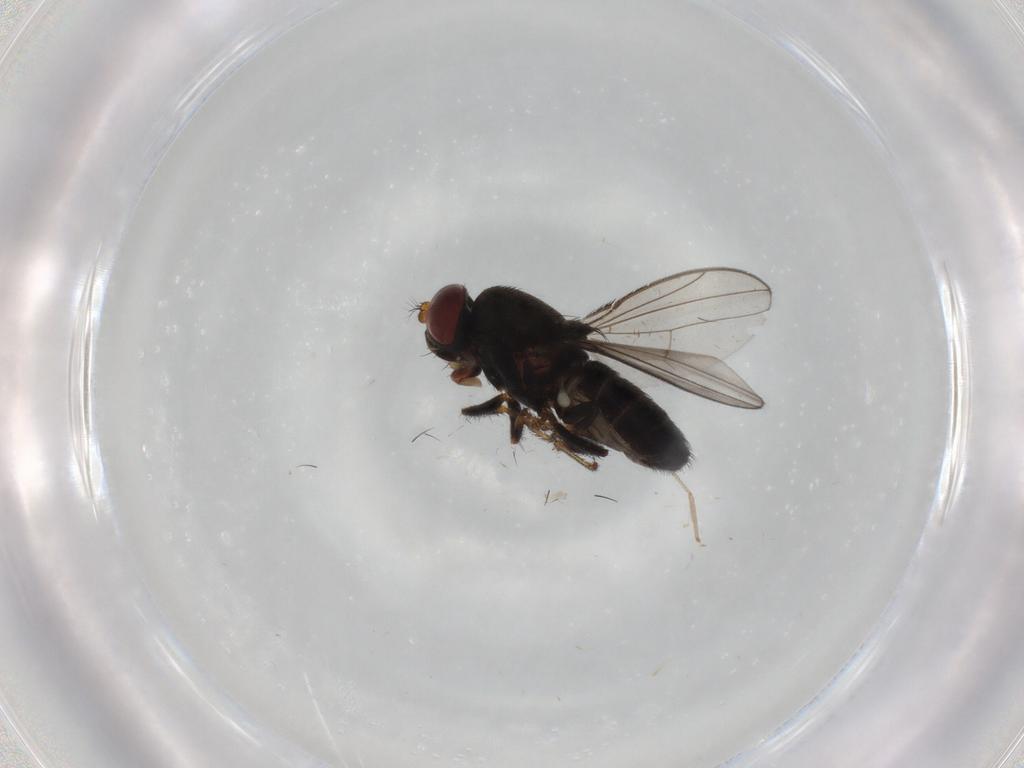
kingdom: Animalia
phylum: Arthropoda
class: Insecta
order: Diptera
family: Ephydridae
